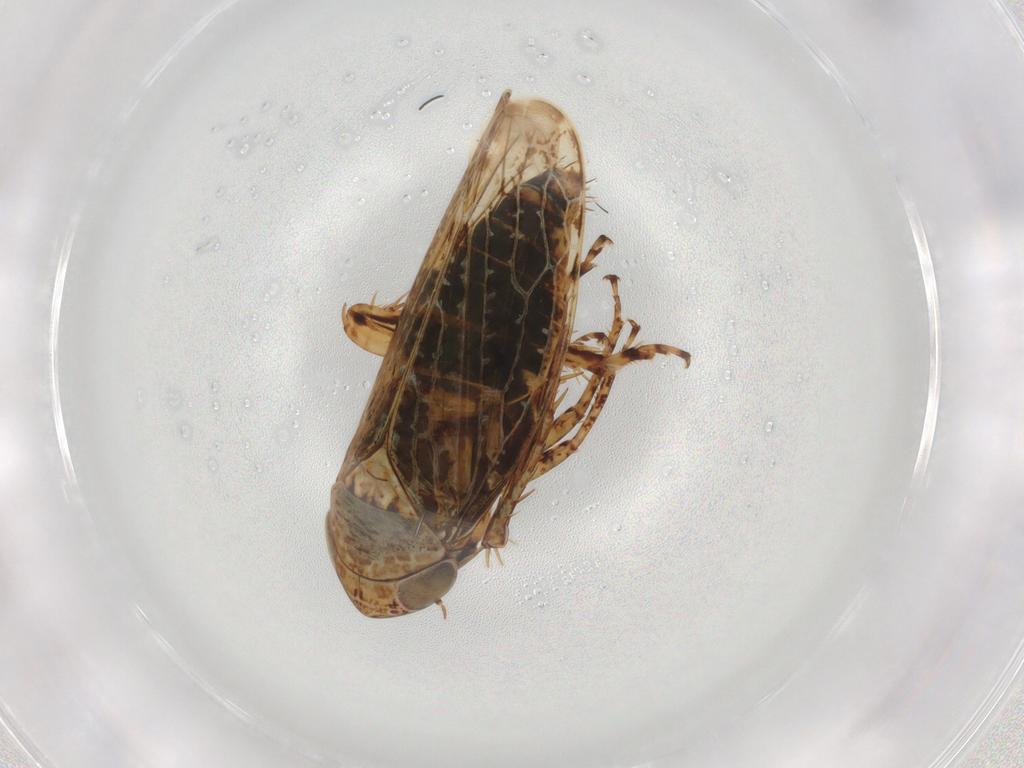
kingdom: Animalia
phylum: Arthropoda
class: Insecta
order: Hemiptera
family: Cicadellidae
